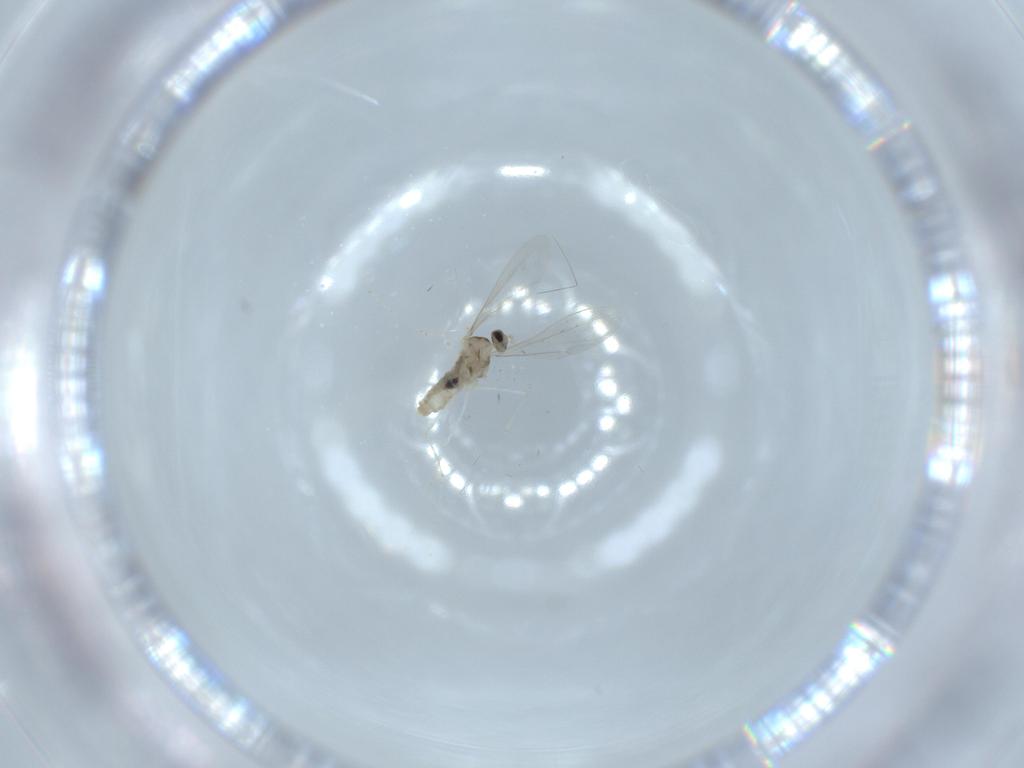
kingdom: Animalia
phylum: Arthropoda
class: Insecta
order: Diptera
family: Cecidomyiidae
